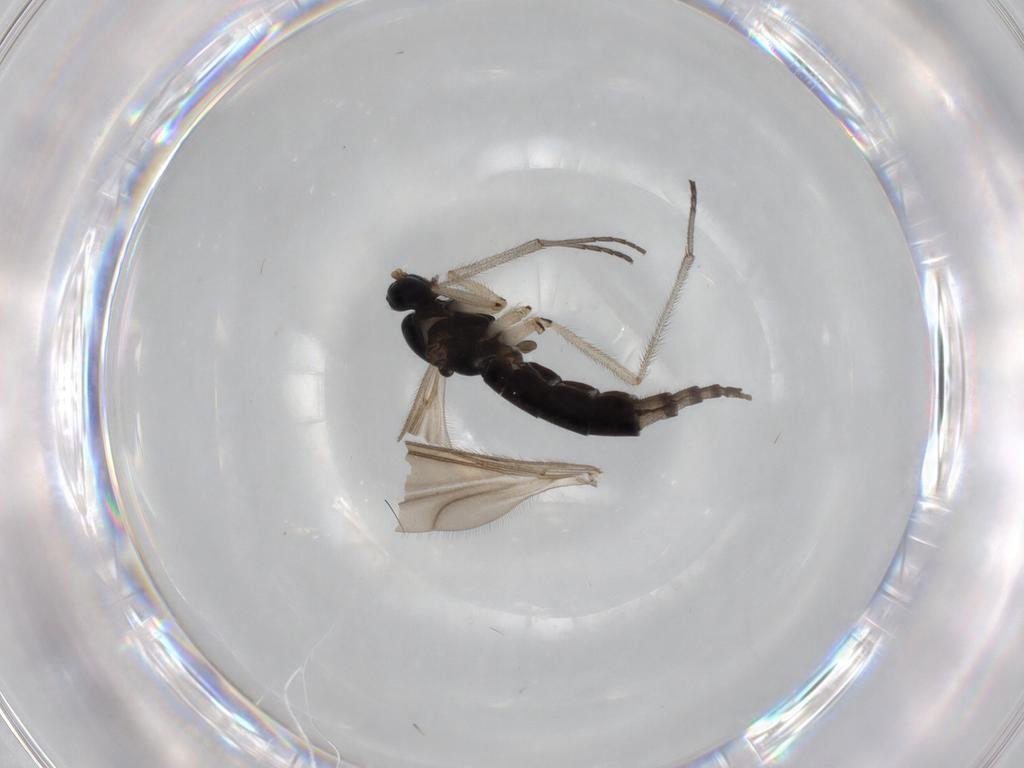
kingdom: Animalia
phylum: Arthropoda
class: Insecta
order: Diptera
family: Sciaridae
